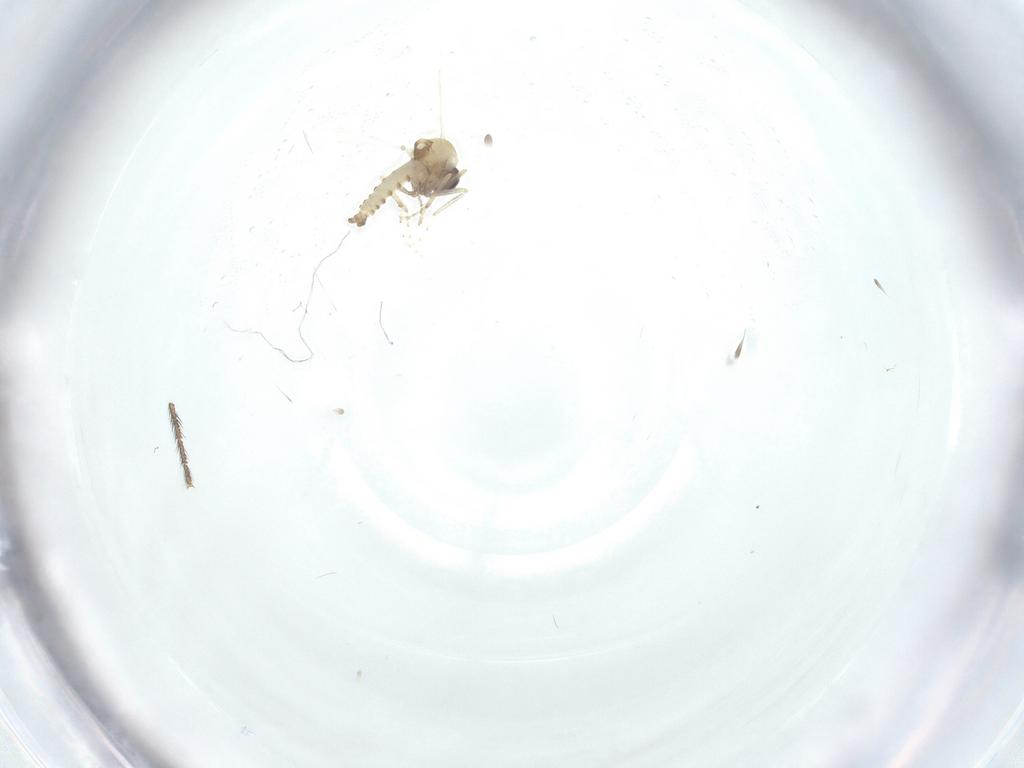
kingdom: Animalia
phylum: Arthropoda
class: Insecta
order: Diptera
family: Cecidomyiidae
